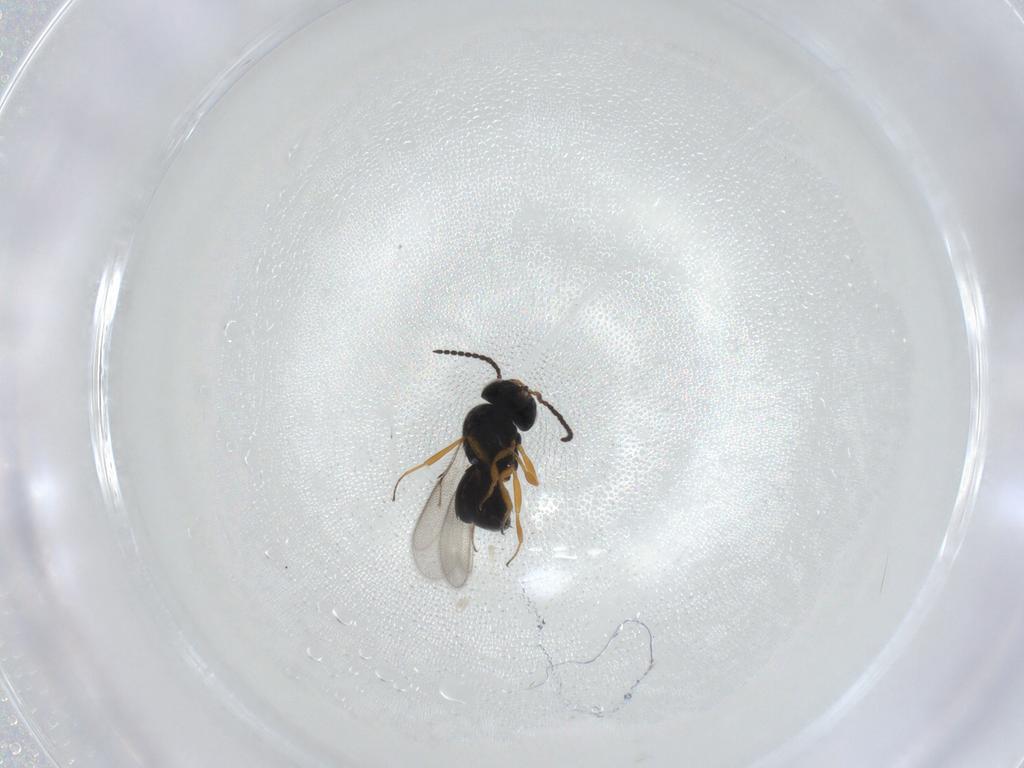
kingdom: Animalia
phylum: Arthropoda
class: Insecta
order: Hymenoptera
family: Scelionidae
